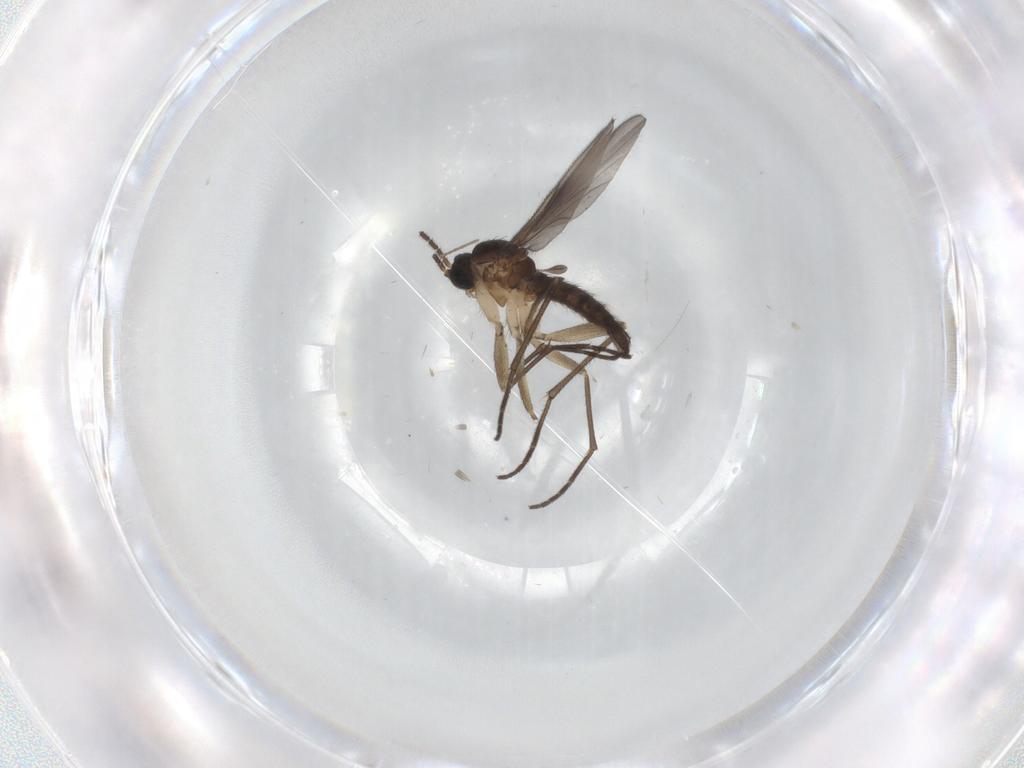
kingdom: Animalia
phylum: Arthropoda
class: Insecta
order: Diptera
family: Sciaridae
